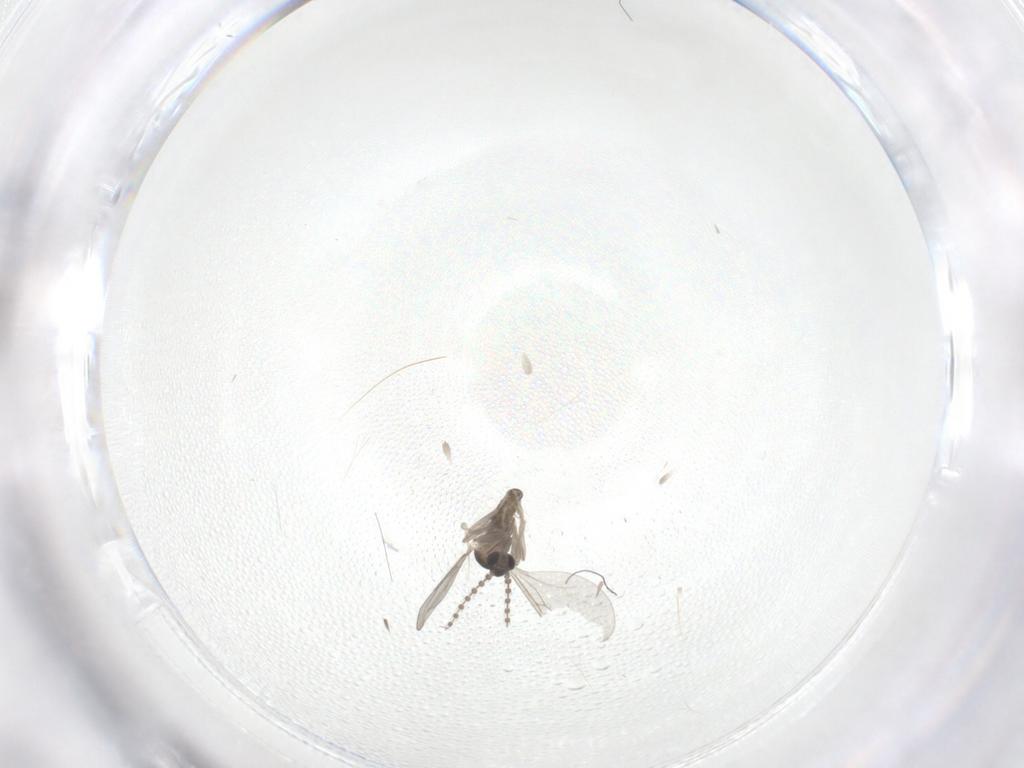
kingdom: Animalia
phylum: Arthropoda
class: Insecta
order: Diptera
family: Cecidomyiidae
